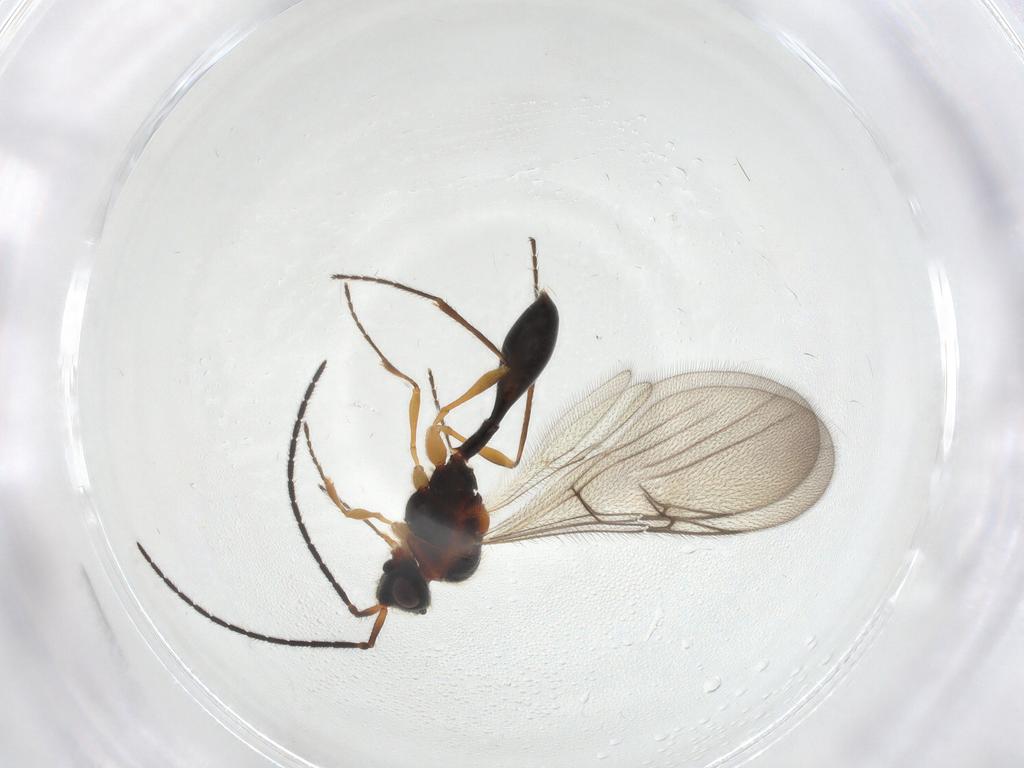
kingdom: Animalia
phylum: Arthropoda
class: Insecta
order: Hymenoptera
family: Diapriidae
